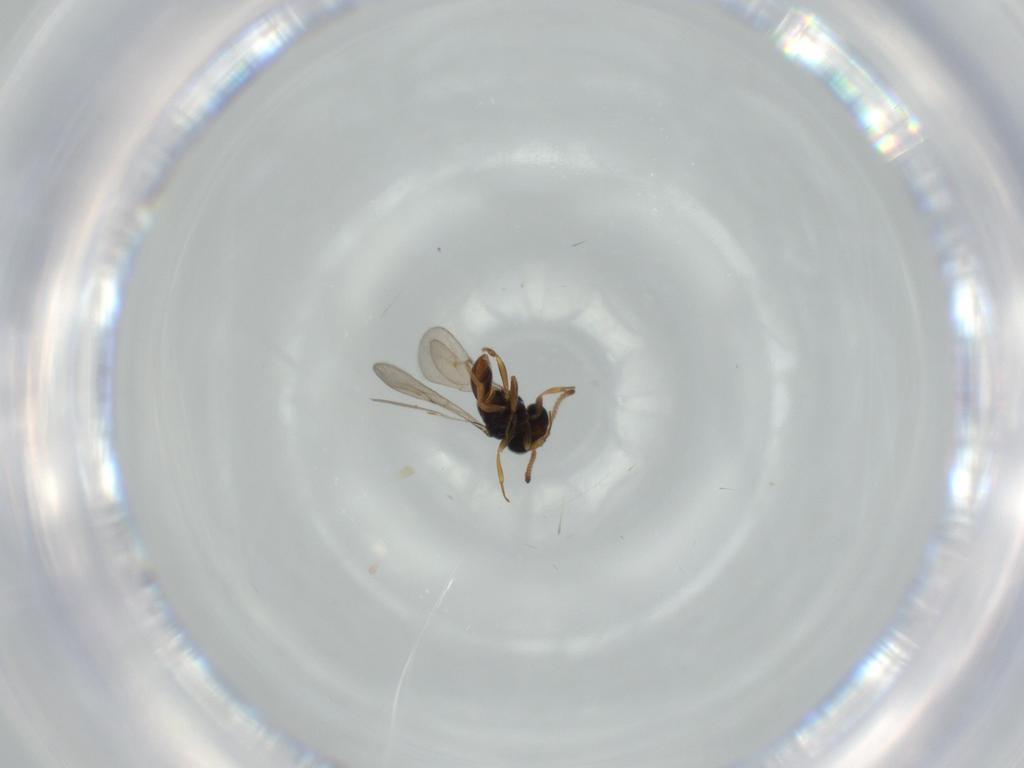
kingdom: Animalia
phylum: Arthropoda
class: Insecta
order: Hymenoptera
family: Scelionidae
